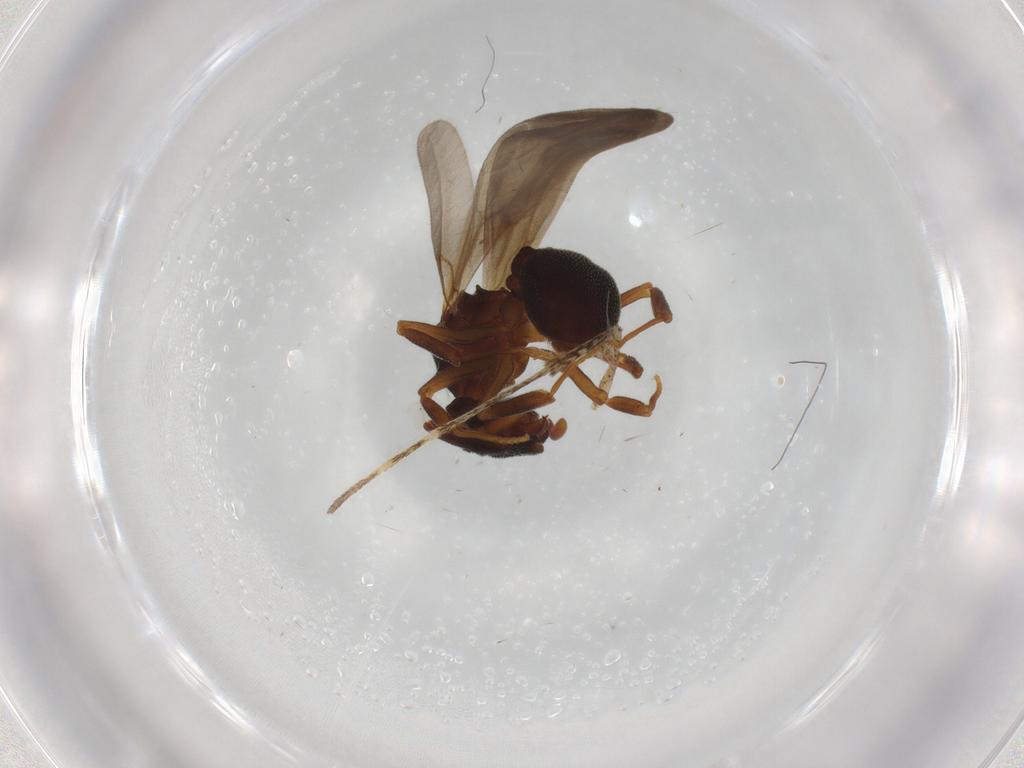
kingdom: Animalia
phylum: Arthropoda
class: Insecta
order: Hymenoptera
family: Formicidae
